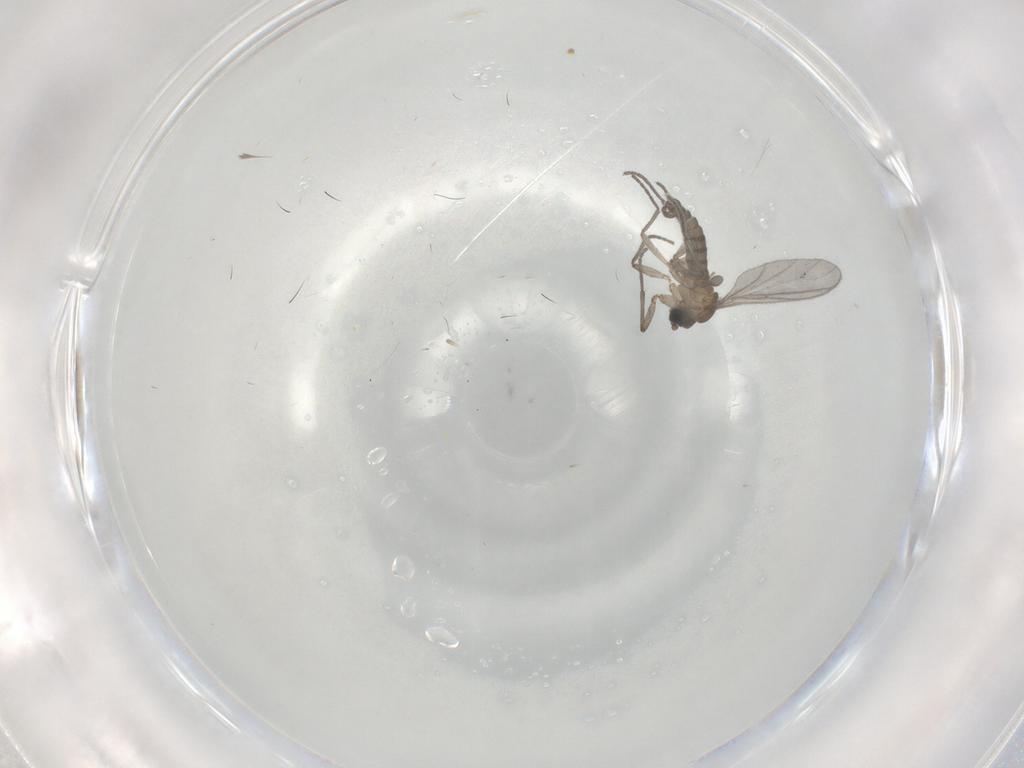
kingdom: Animalia
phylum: Arthropoda
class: Insecta
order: Diptera
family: Sciaridae
